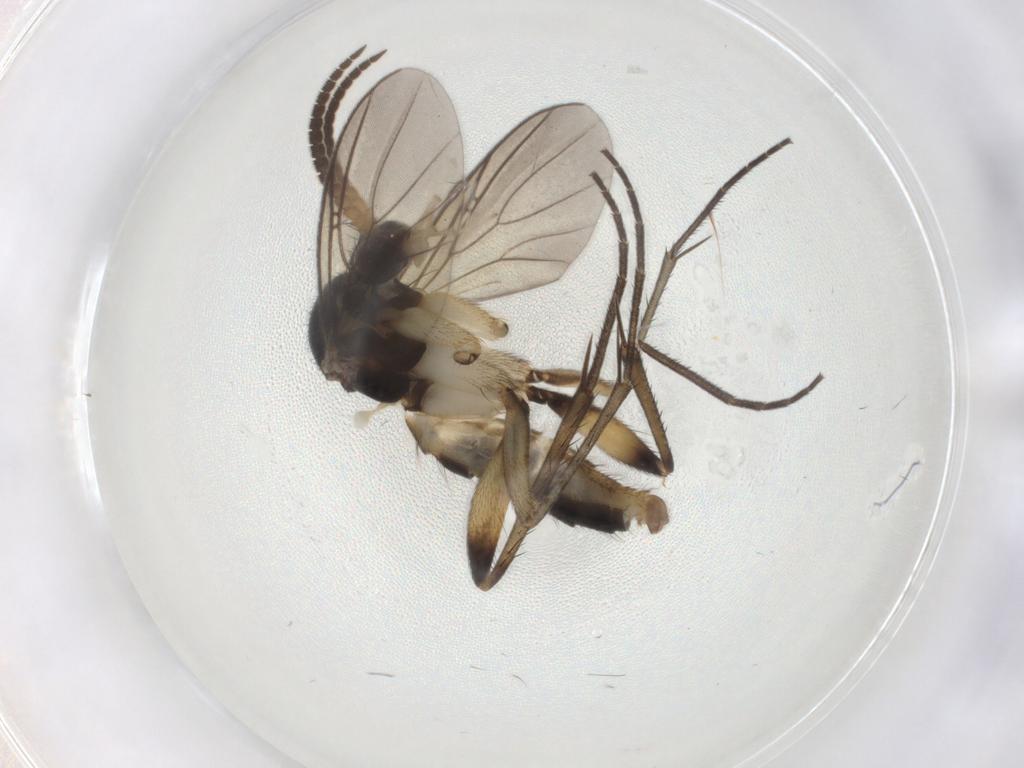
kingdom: Animalia
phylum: Arthropoda
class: Insecta
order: Diptera
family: Mycetophilidae
